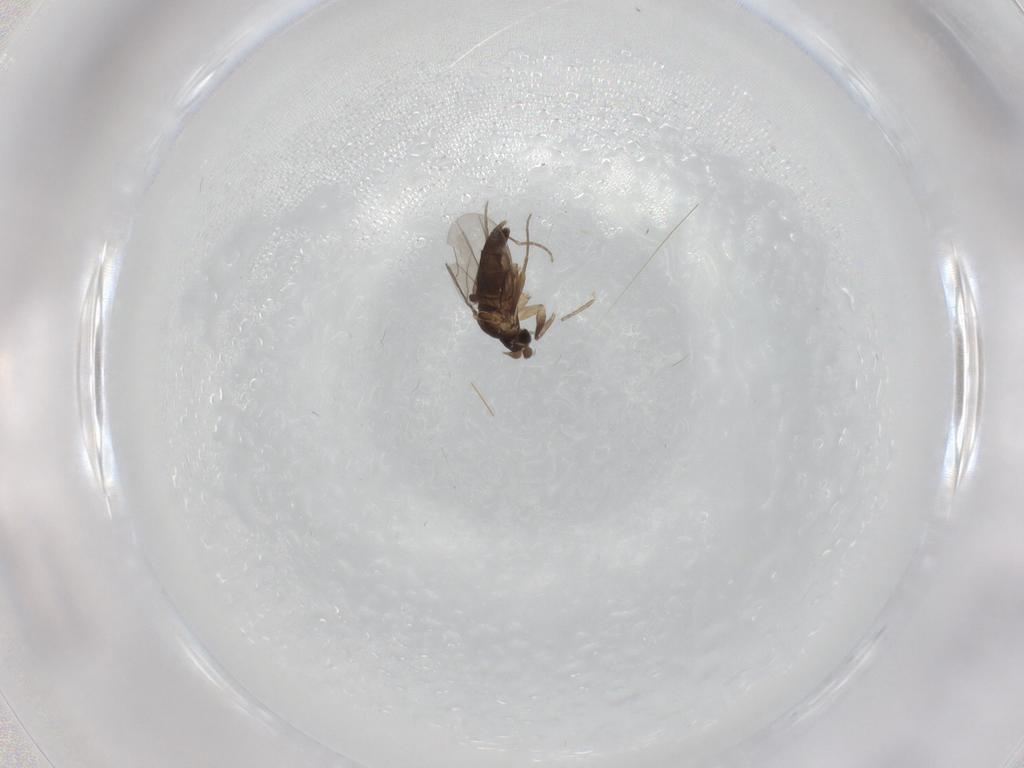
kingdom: Animalia
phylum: Arthropoda
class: Insecta
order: Diptera
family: Phoridae
